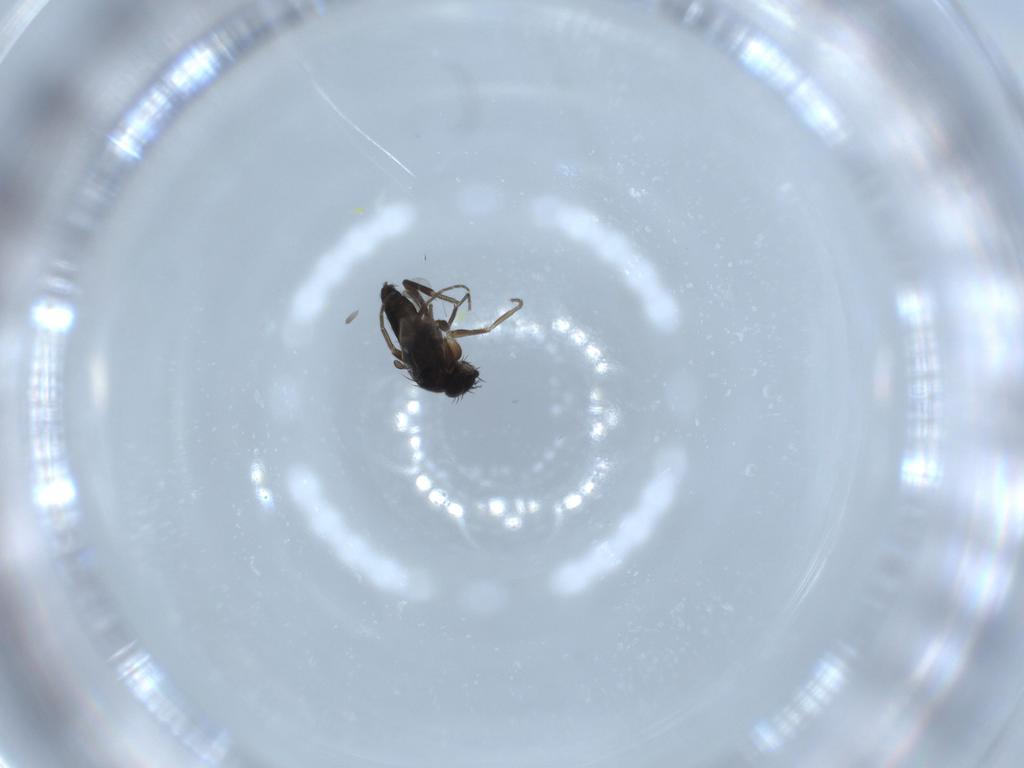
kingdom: Animalia
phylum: Arthropoda
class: Insecta
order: Diptera
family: Phoridae
